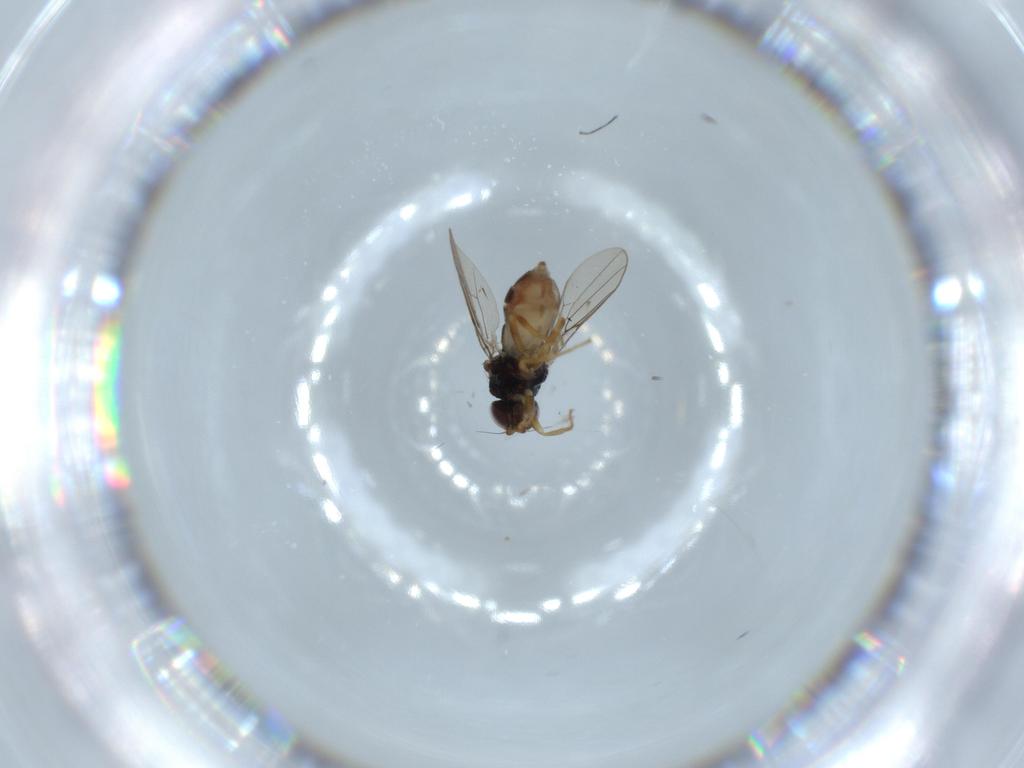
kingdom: Animalia
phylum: Arthropoda
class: Insecta
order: Diptera
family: Chloropidae
